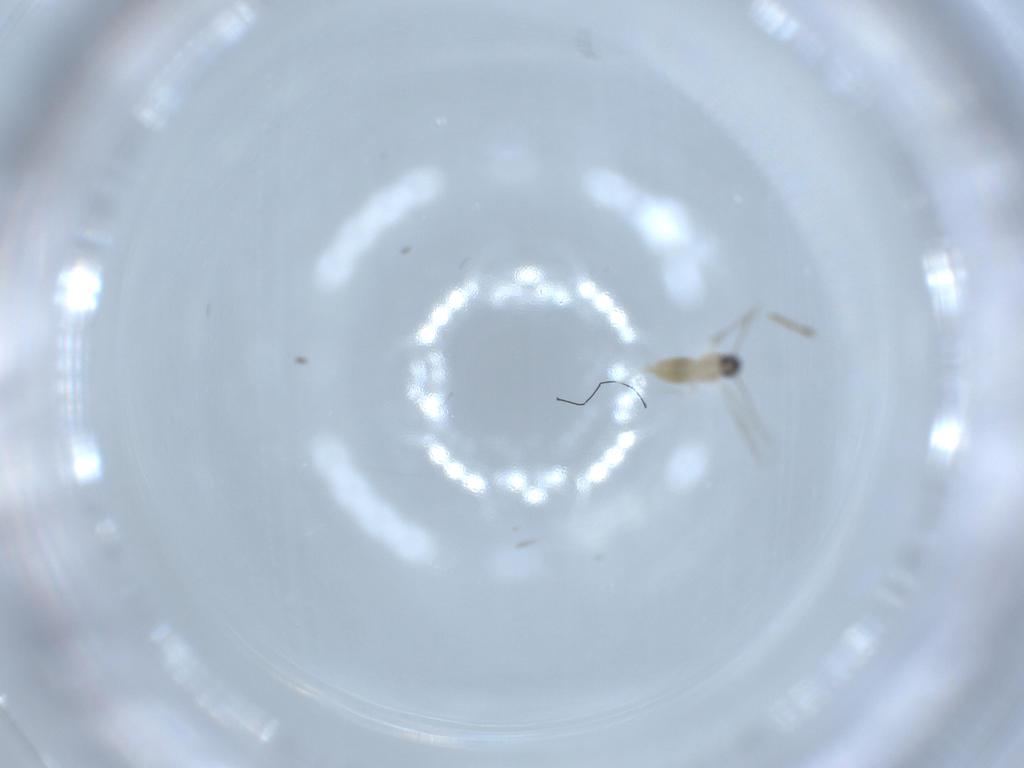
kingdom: Animalia
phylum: Arthropoda
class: Insecta
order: Diptera
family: Cecidomyiidae
